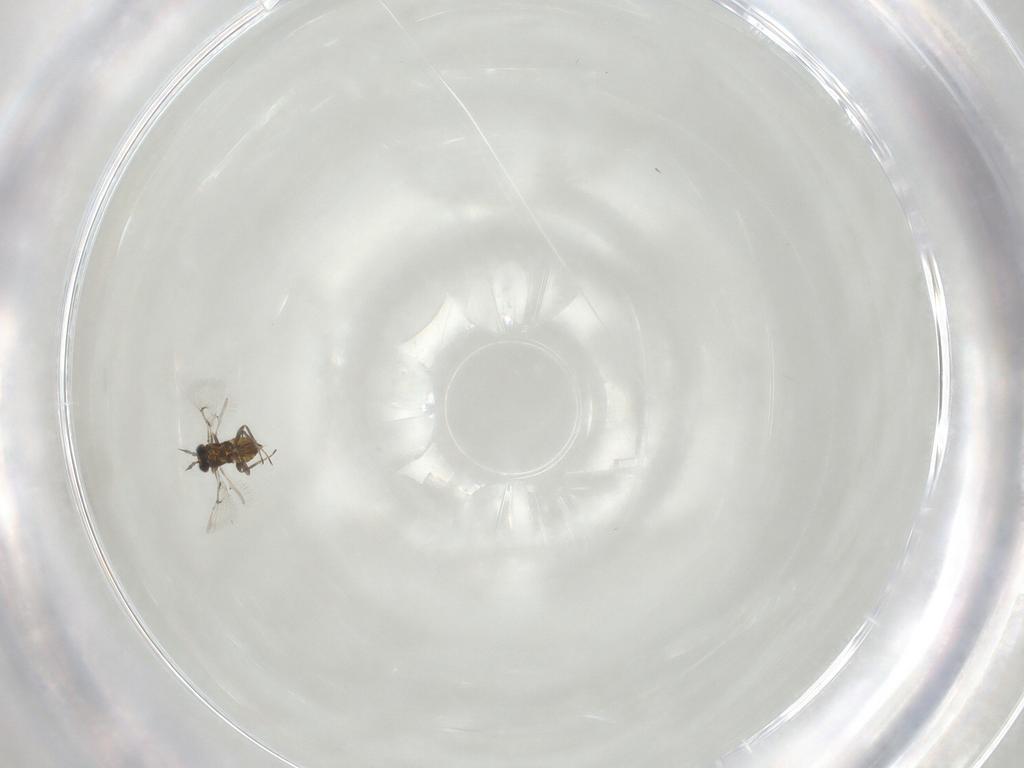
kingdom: Animalia
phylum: Arthropoda
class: Insecta
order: Hymenoptera
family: Trichogrammatidae
